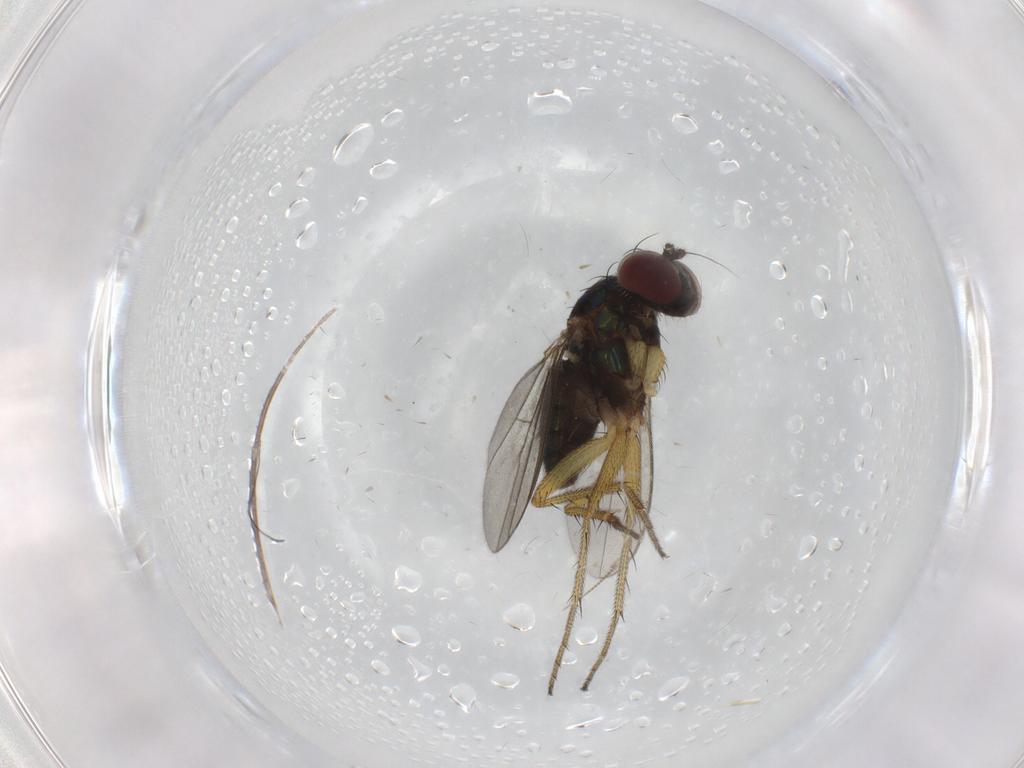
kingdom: Animalia
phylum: Arthropoda
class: Insecta
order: Diptera
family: Dolichopodidae
